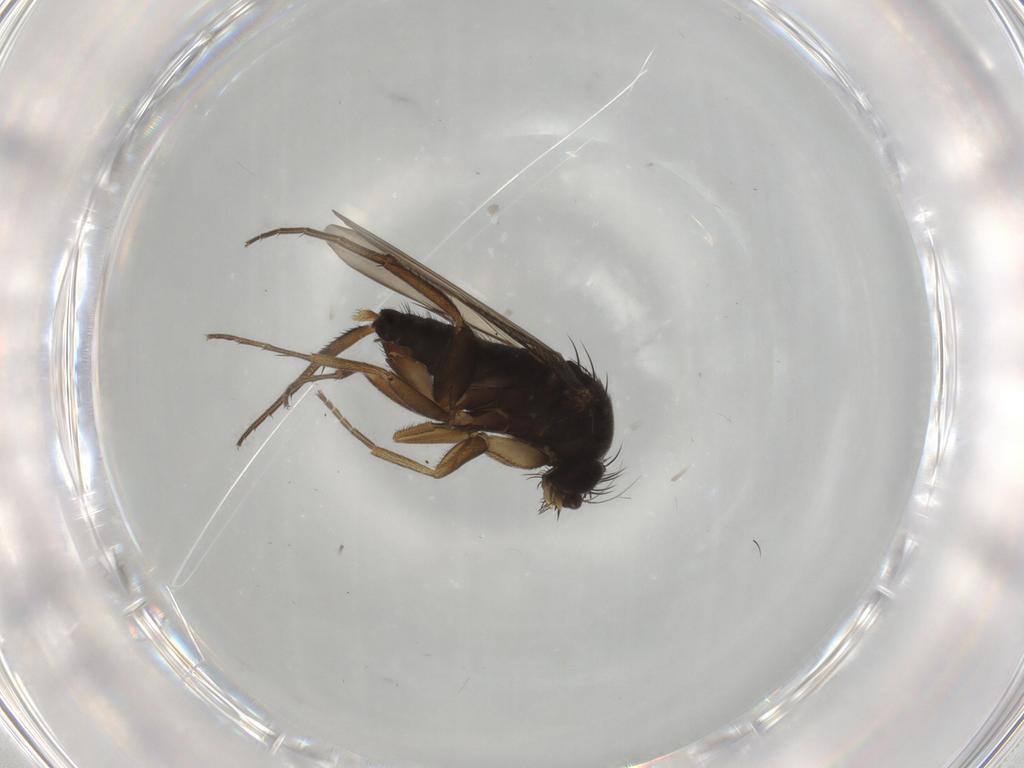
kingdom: Animalia
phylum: Arthropoda
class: Insecta
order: Diptera
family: Phoridae
